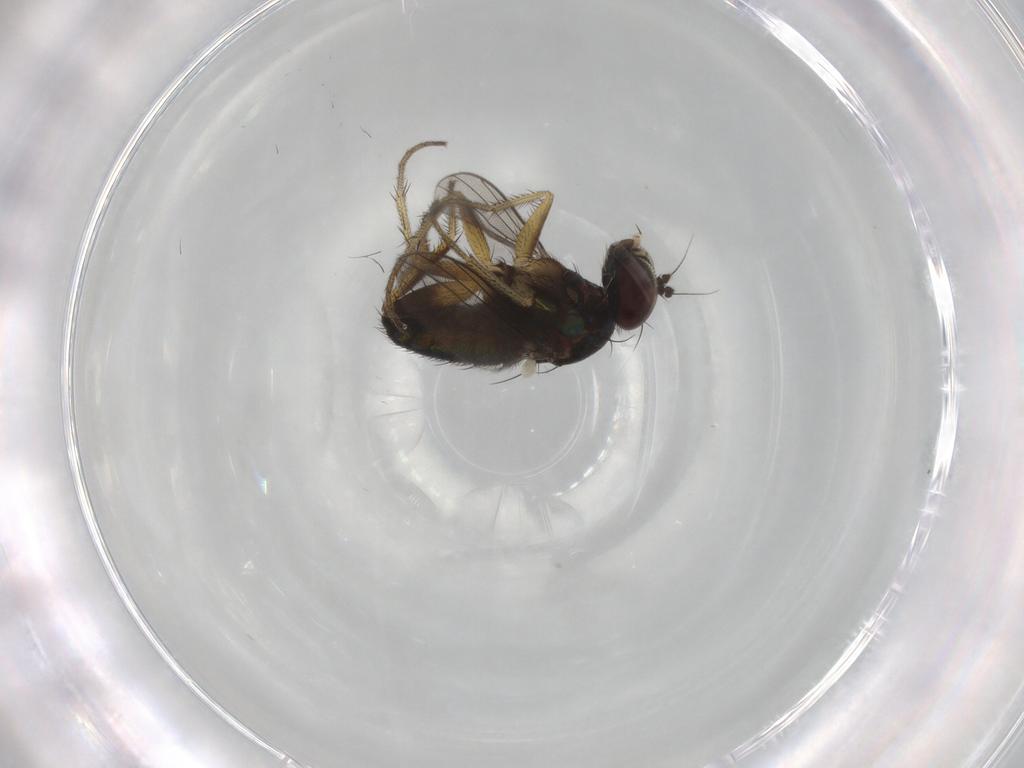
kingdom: Animalia
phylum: Arthropoda
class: Insecta
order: Diptera
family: Dolichopodidae
